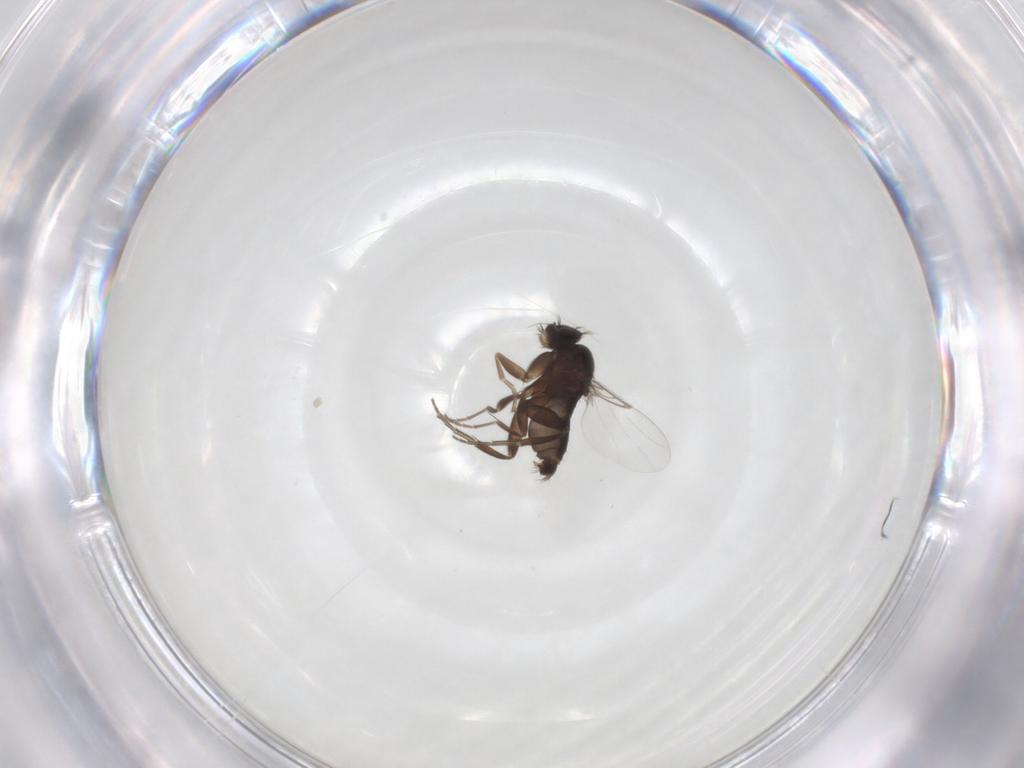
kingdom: Animalia
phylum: Arthropoda
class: Insecta
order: Diptera
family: Phoridae
